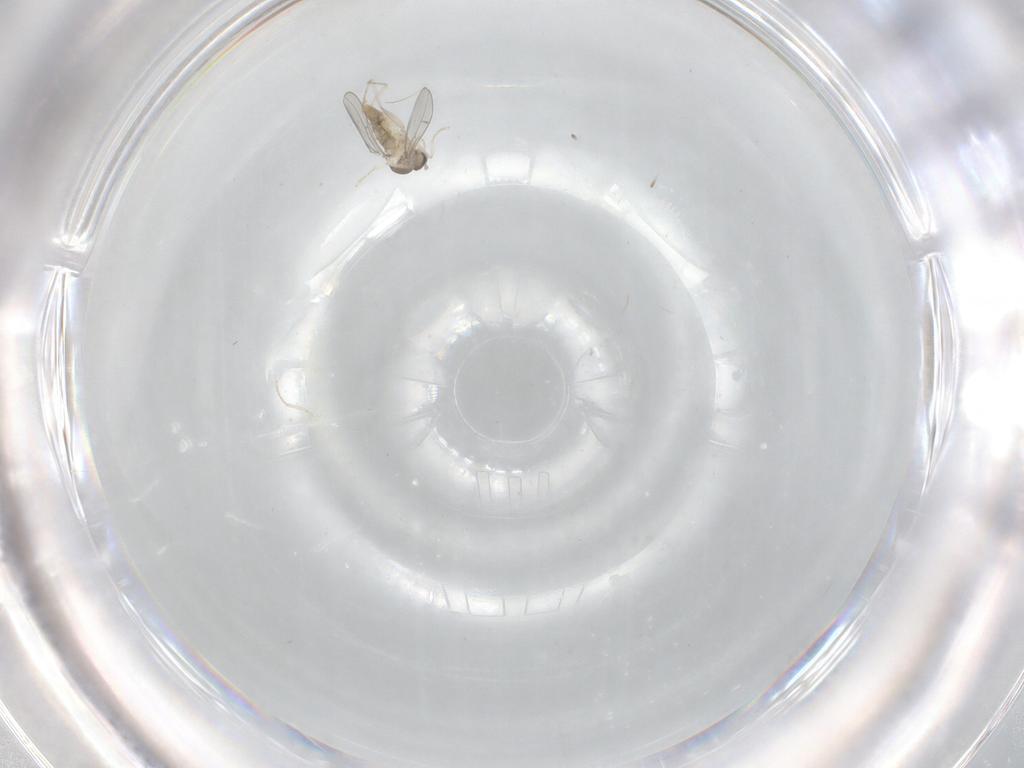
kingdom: Animalia
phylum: Arthropoda
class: Insecta
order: Diptera
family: Cecidomyiidae
